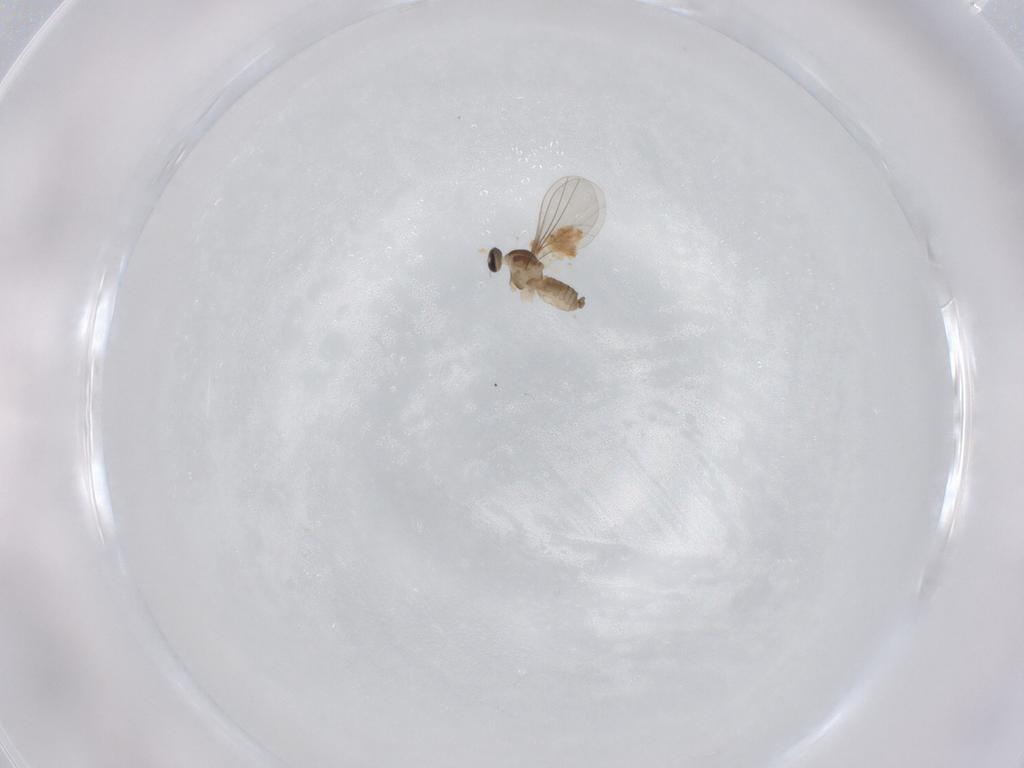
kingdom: Animalia
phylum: Arthropoda
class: Insecta
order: Diptera
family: Cecidomyiidae
